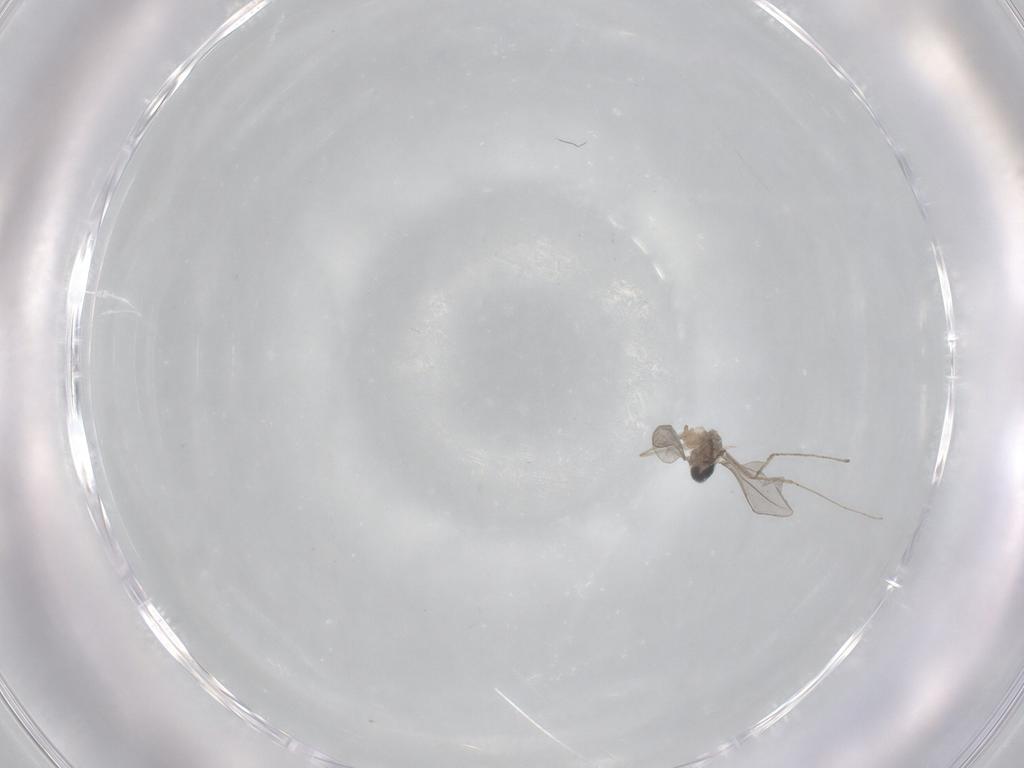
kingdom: Animalia
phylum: Arthropoda
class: Insecta
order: Diptera
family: Cecidomyiidae
